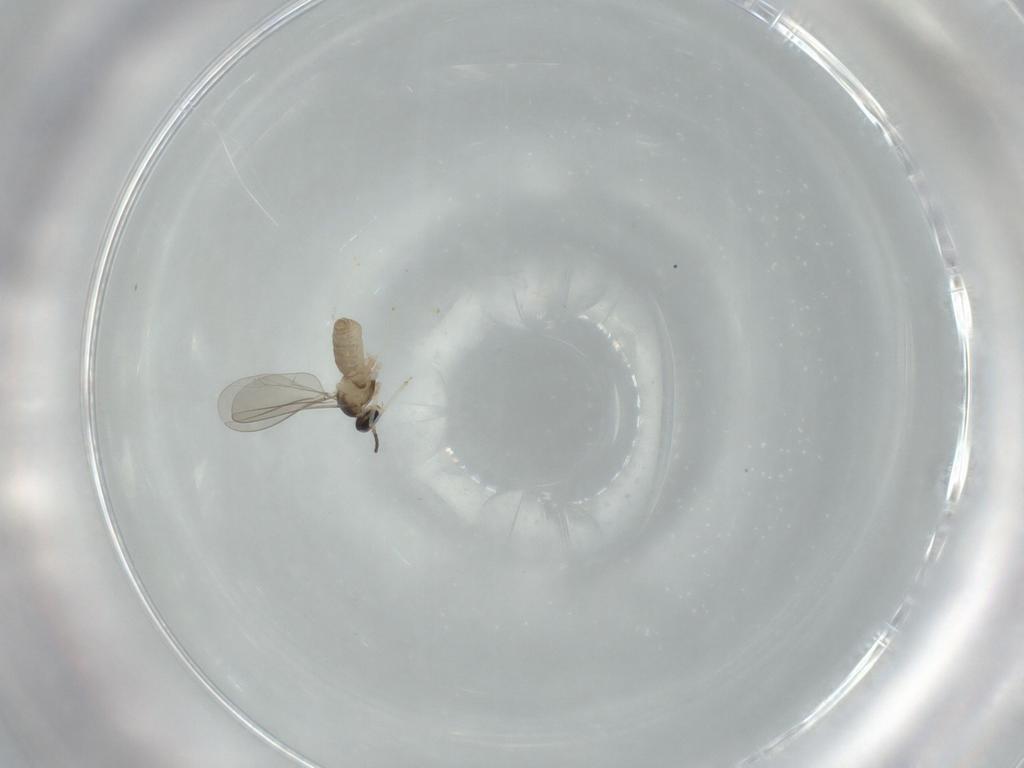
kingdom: Animalia
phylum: Arthropoda
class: Insecta
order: Diptera
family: Cecidomyiidae
